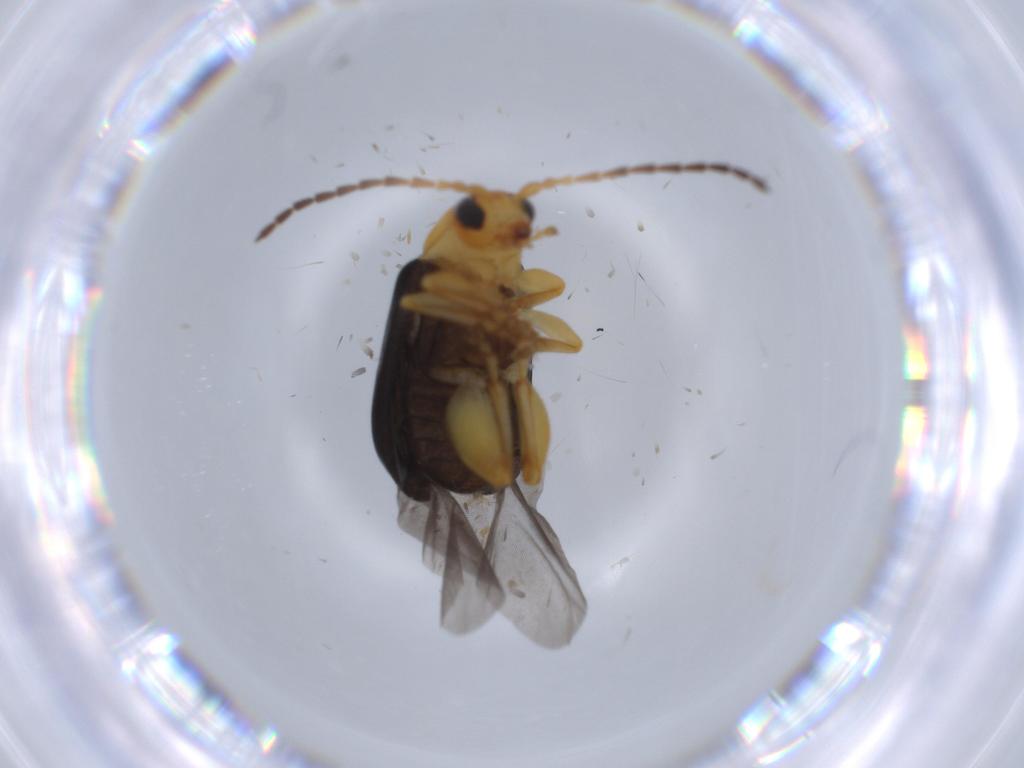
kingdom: Animalia
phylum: Arthropoda
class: Insecta
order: Coleoptera
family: Chrysomelidae
